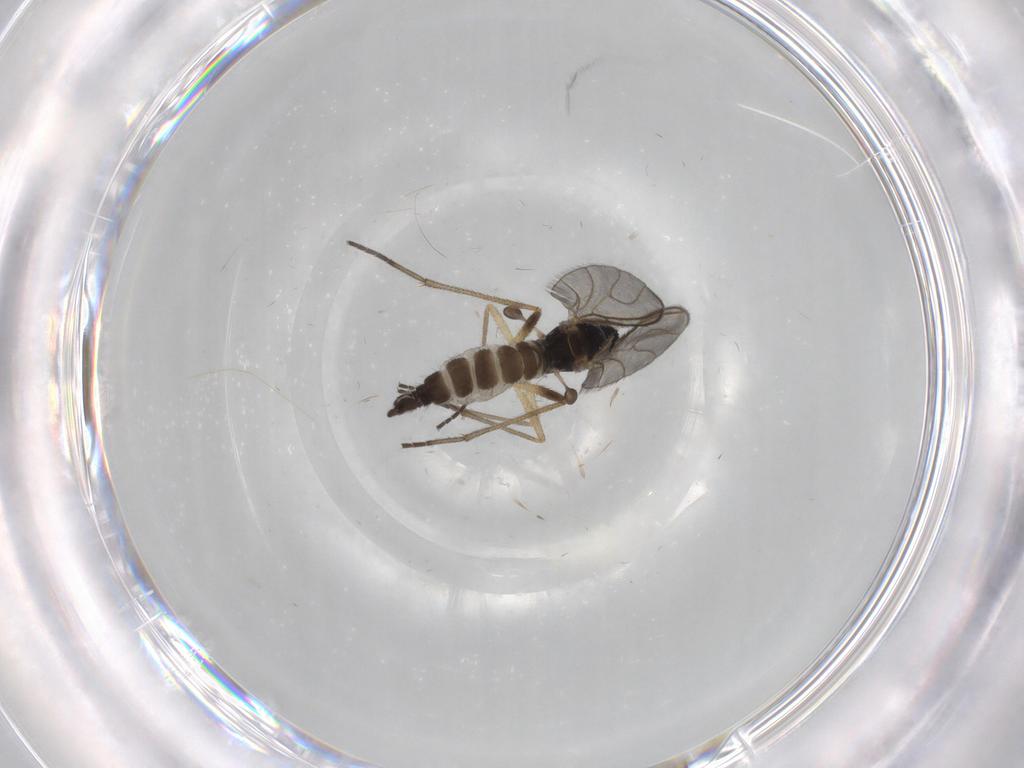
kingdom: Animalia
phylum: Arthropoda
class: Insecta
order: Diptera
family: Sciaridae
